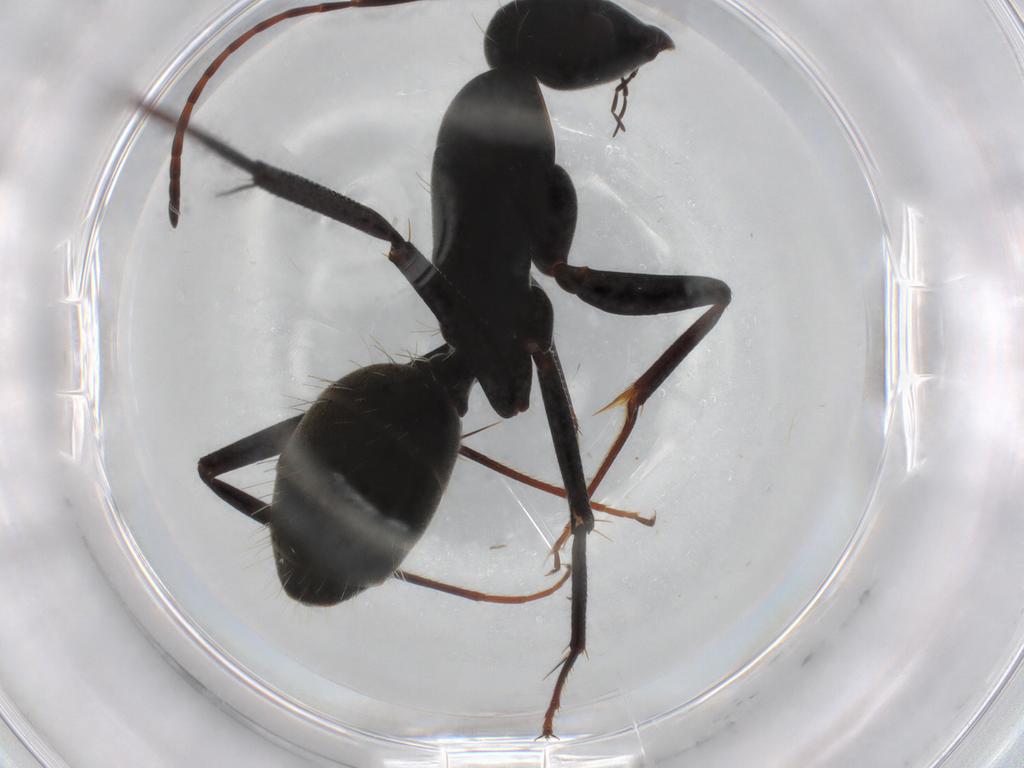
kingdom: Animalia
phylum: Arthropoda
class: Insecta
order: Hymenoptera
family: Formicidae
